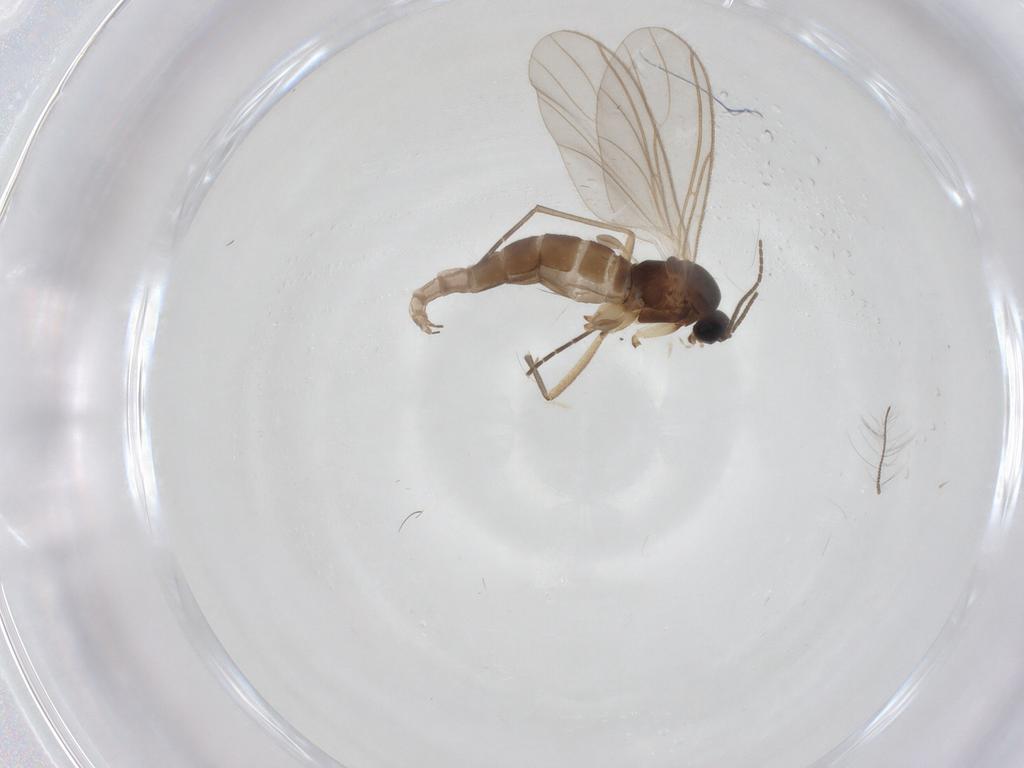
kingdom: Animalia
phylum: Arthropoda
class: Insecta
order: Diptera
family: Sciaridae
